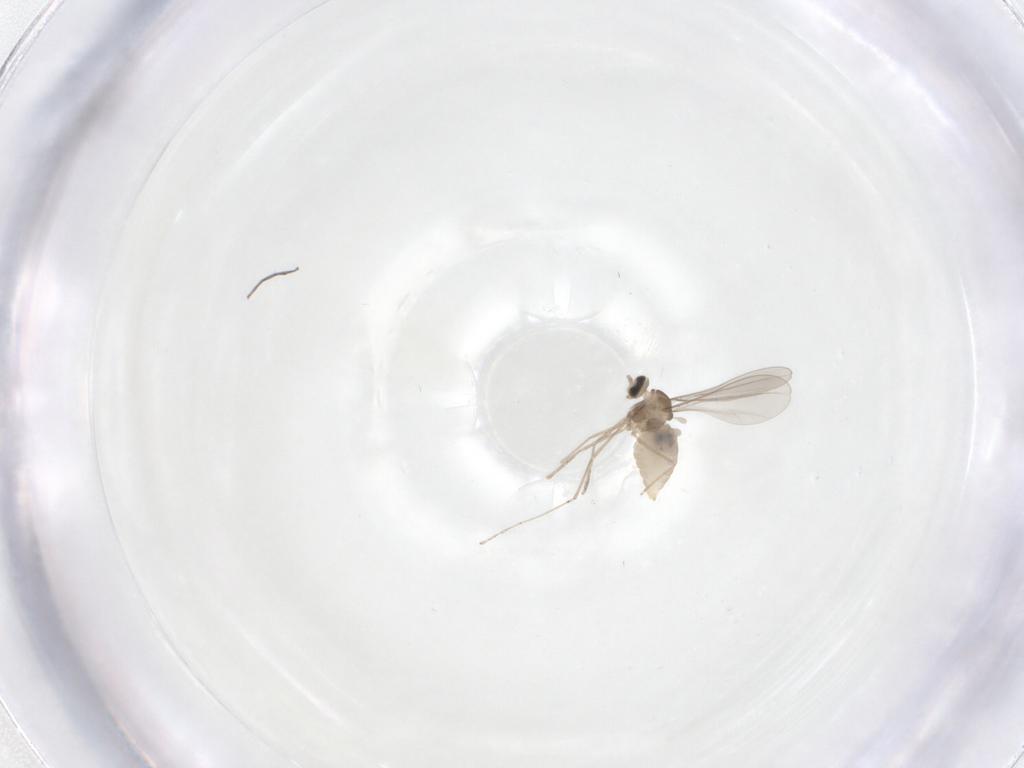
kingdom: Animalia
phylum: Arthropoda
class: Insecta
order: Diptera
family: Cecidomyiidae
